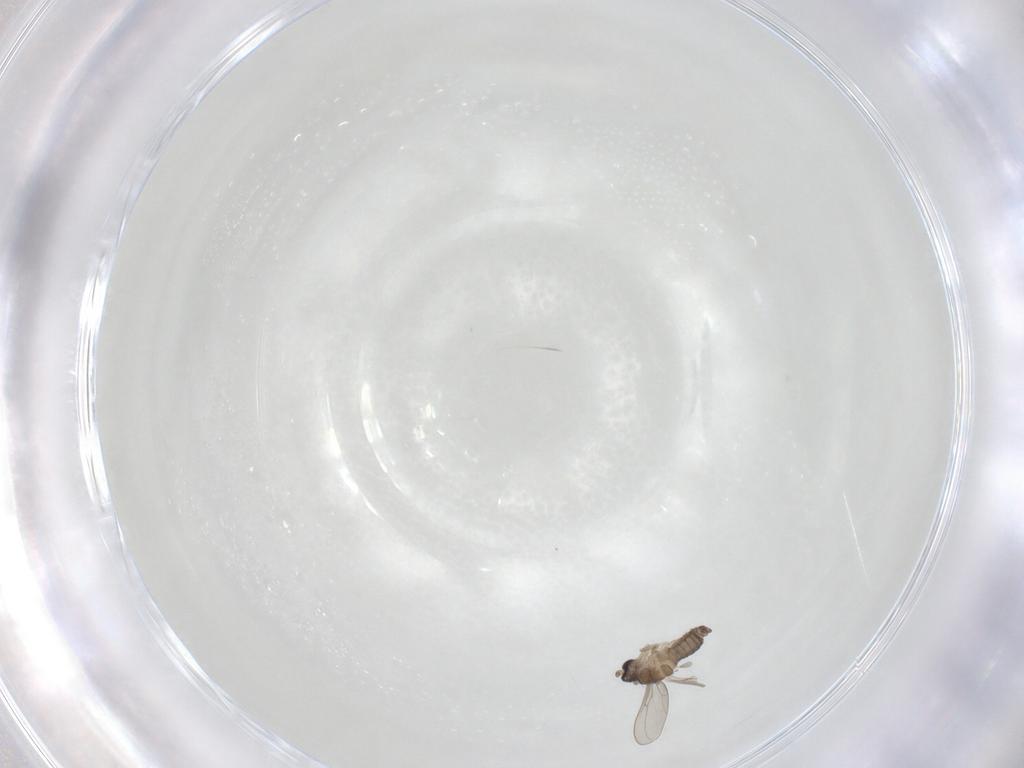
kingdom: Animalia
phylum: Arthropoda
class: Insecta
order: Diptera
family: Cecidomyiidae
